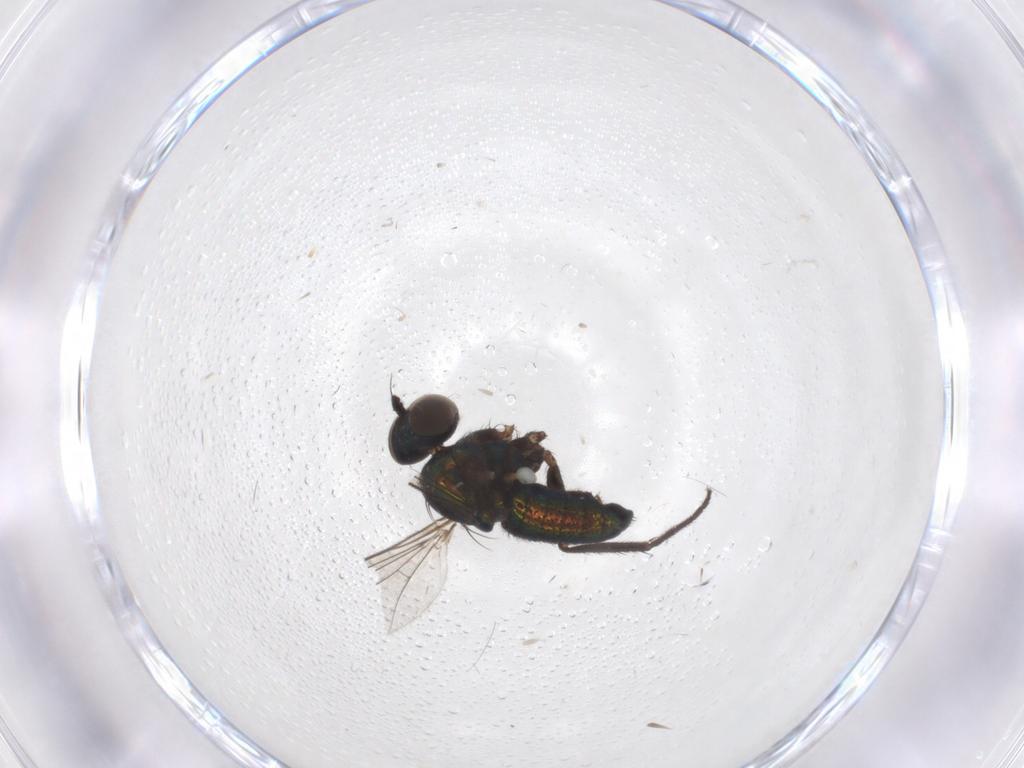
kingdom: Animalia
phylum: Arthropoda
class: Insecta
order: Diptera
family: Dolichopodidae
